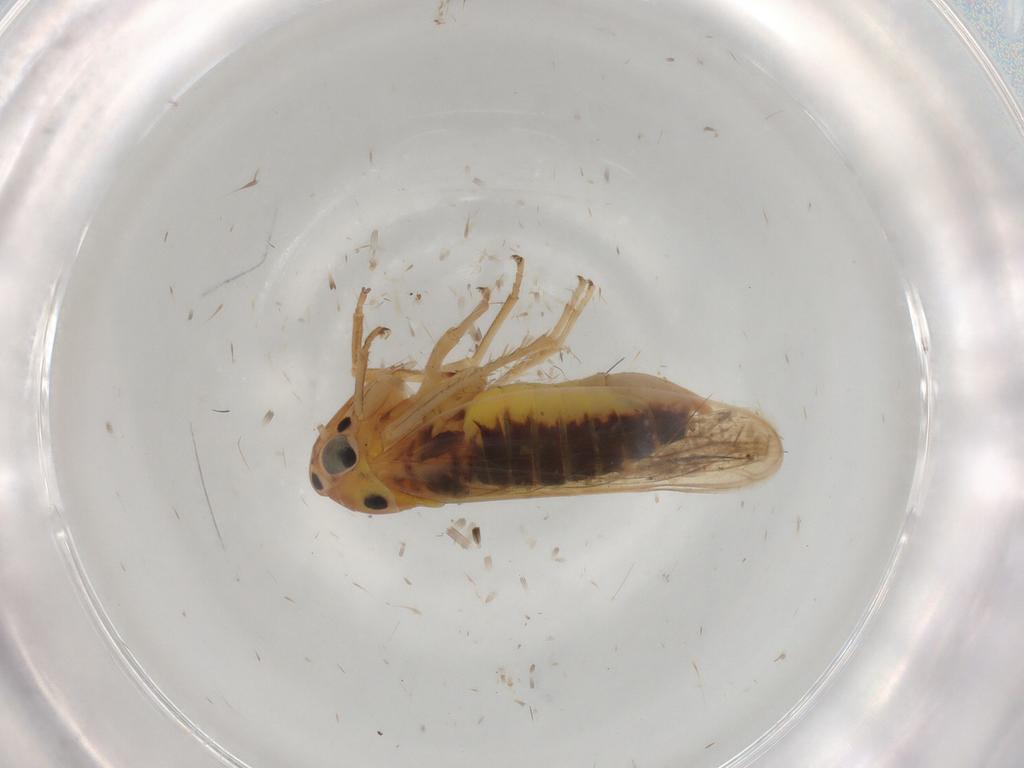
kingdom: Animalia
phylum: Arthropoda
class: Insecta
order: Hemiptera
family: Cicadellidae
